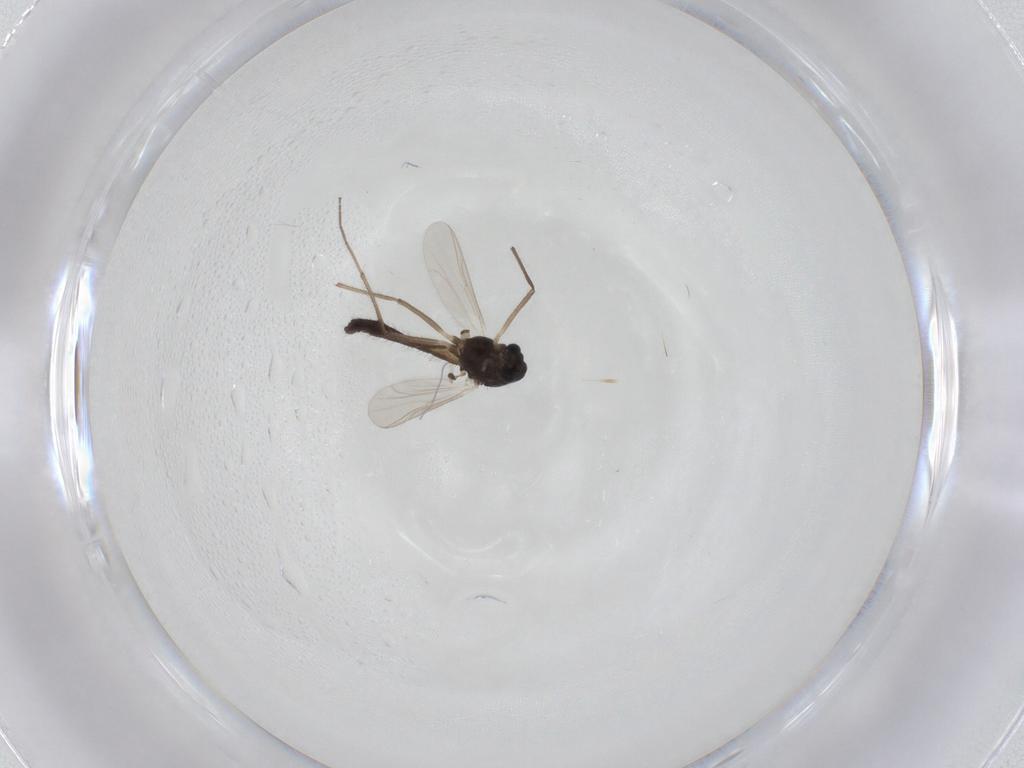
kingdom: Animalia
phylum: Arthropoda
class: Insecta
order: Diptera
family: Chironomidae
